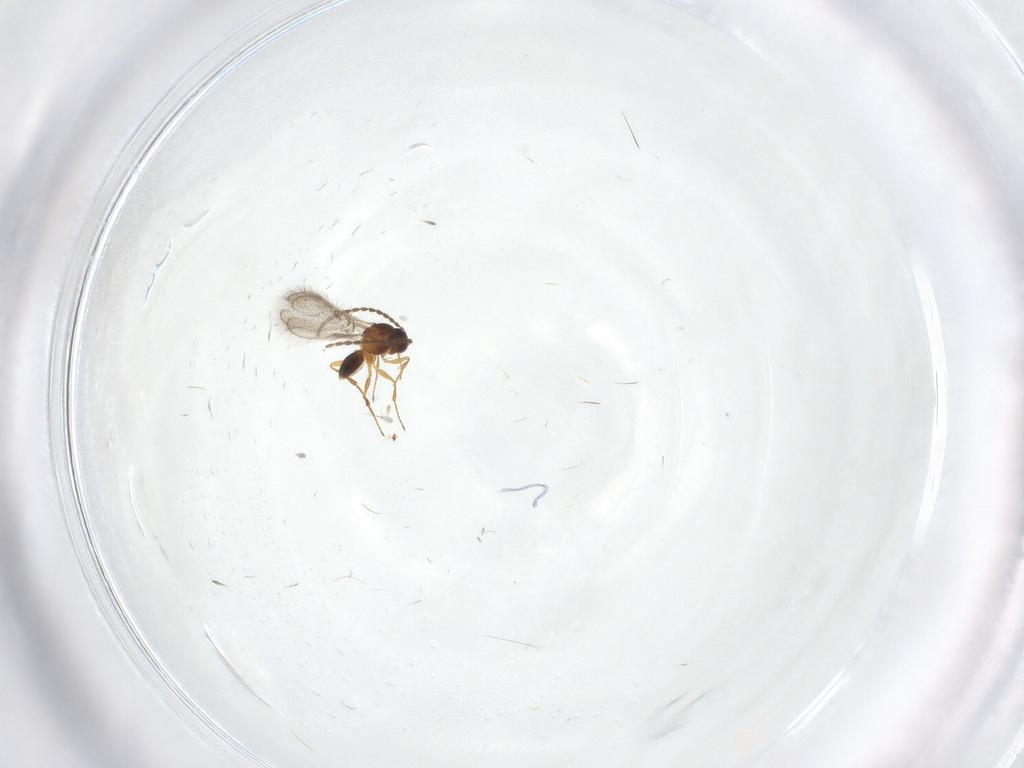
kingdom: Animalia
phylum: Arthropoda
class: Insecta
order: Hymenoptera
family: Figitidae
